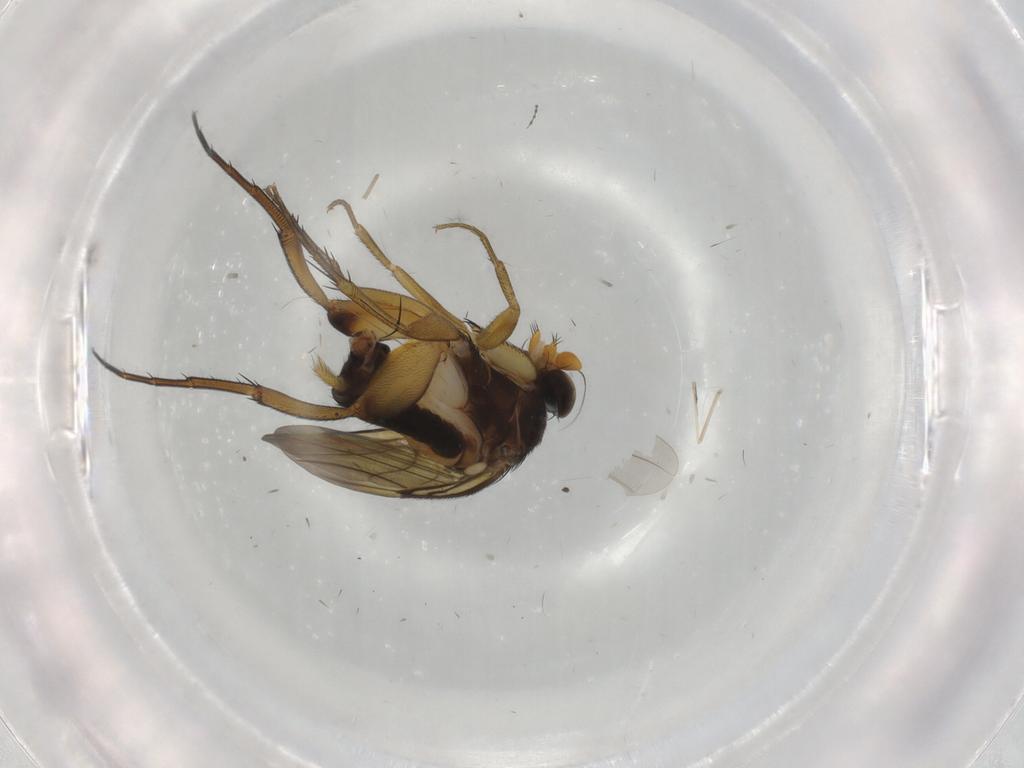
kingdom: Animalia
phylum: Arthropoda
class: Insecta
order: Diptera
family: Phoridae
